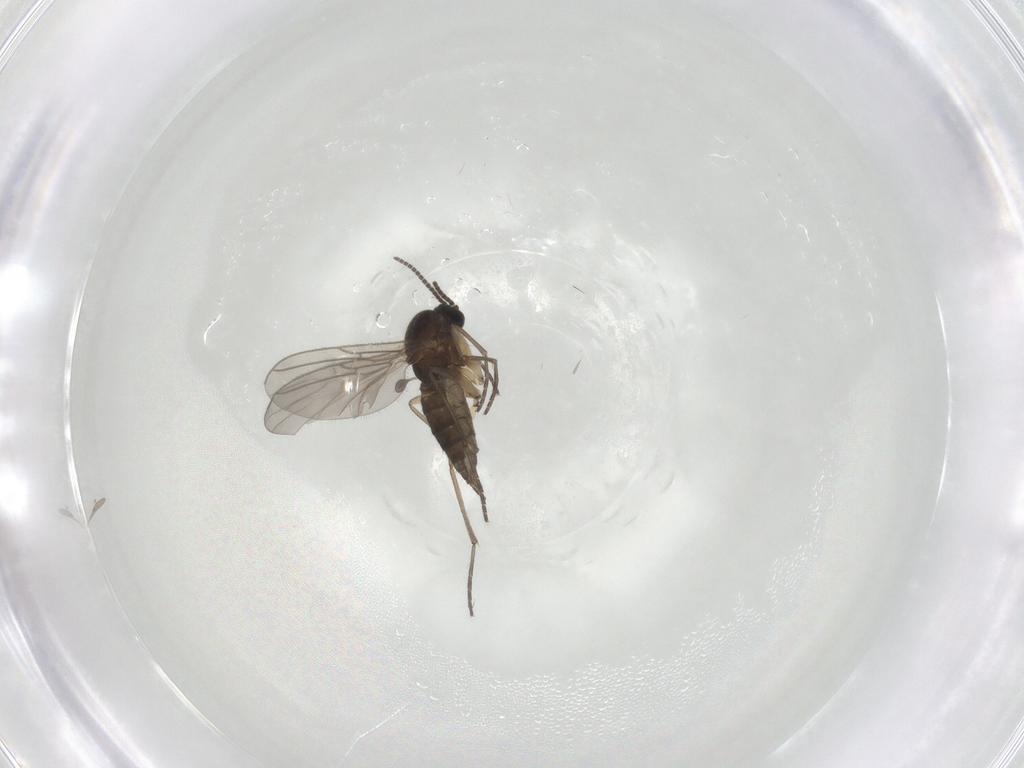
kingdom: Animalia
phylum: Arthropoda
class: Insecta
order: Diptera
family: Sciaridae
